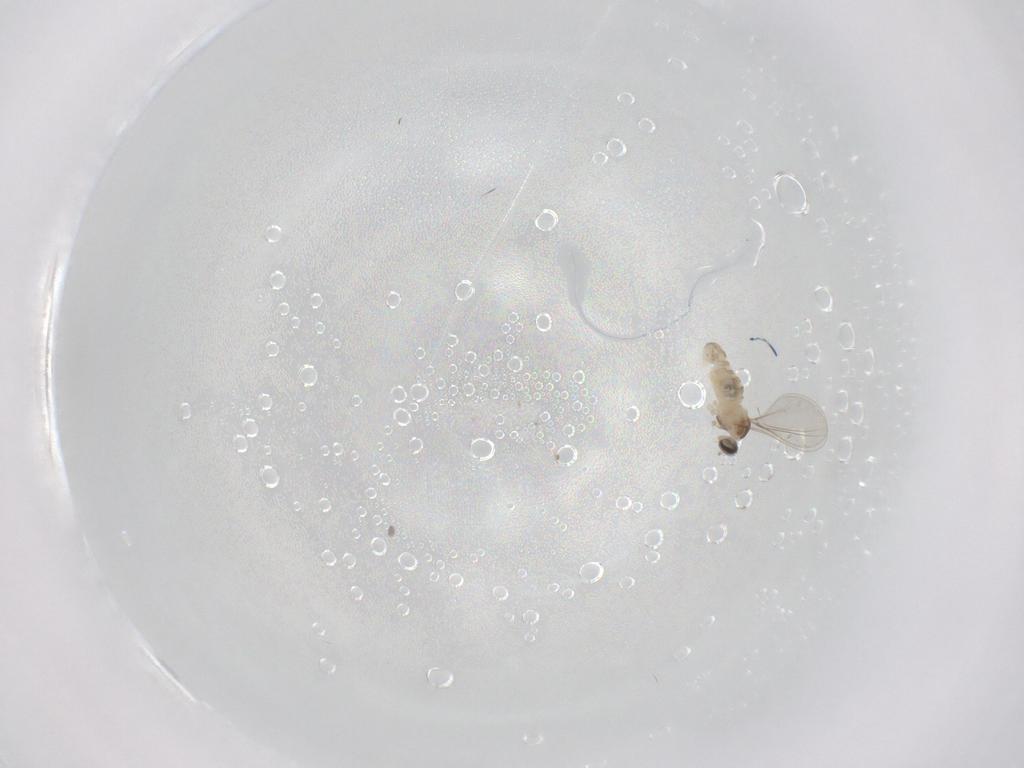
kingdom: Animalia
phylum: Arthropoda
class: Insecta
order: Diptera
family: Cecidomyiidae
